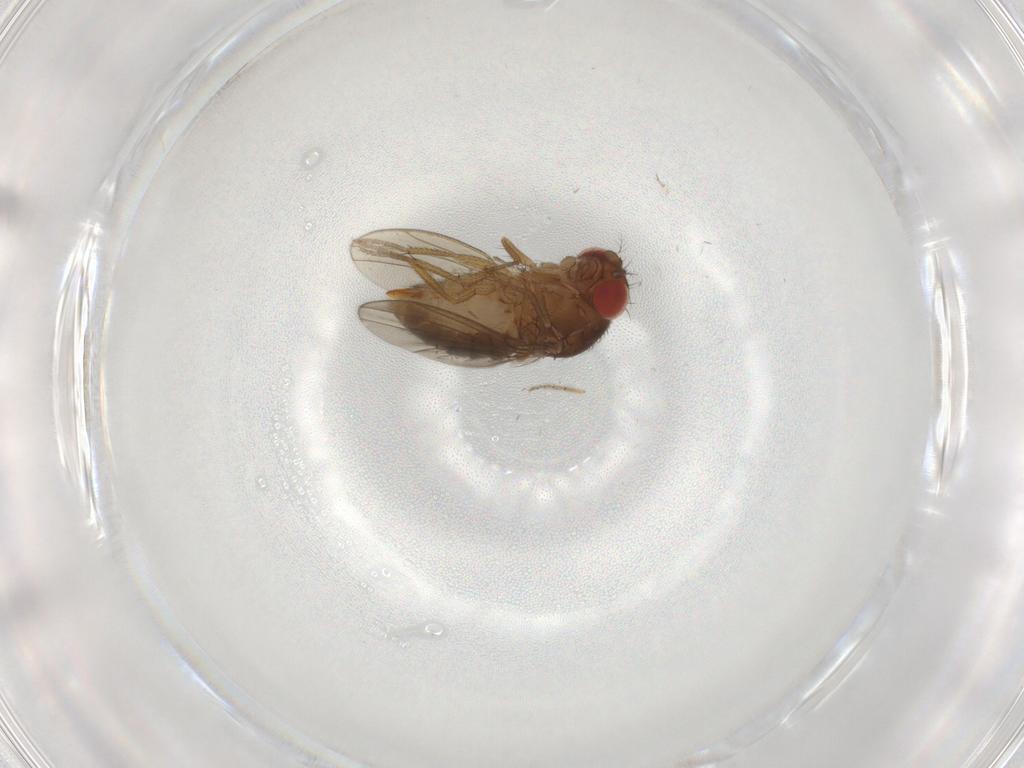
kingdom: Animalia
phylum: Arthropoda
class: Insecta
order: Diptera
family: Drosophilidae
